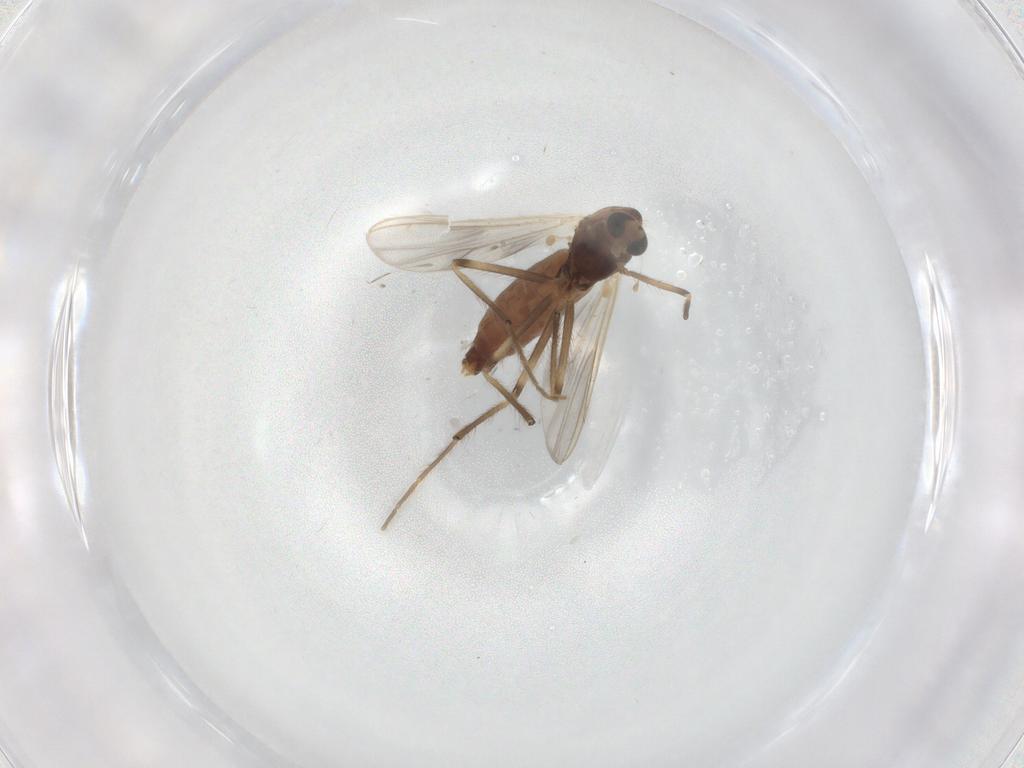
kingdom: Animalia
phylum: Arthropoda
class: Insecta
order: Diptera
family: Chironomidae
